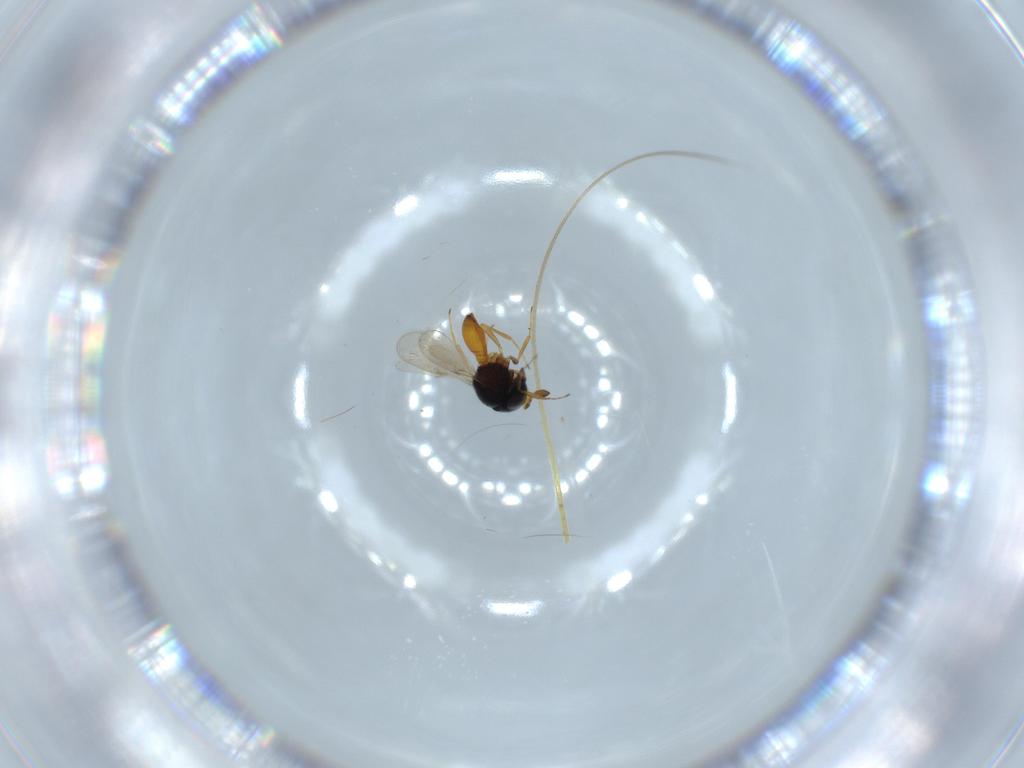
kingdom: Animalia
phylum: Arthropoda
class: Insecta
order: Hymenoptera
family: Scelionidae
